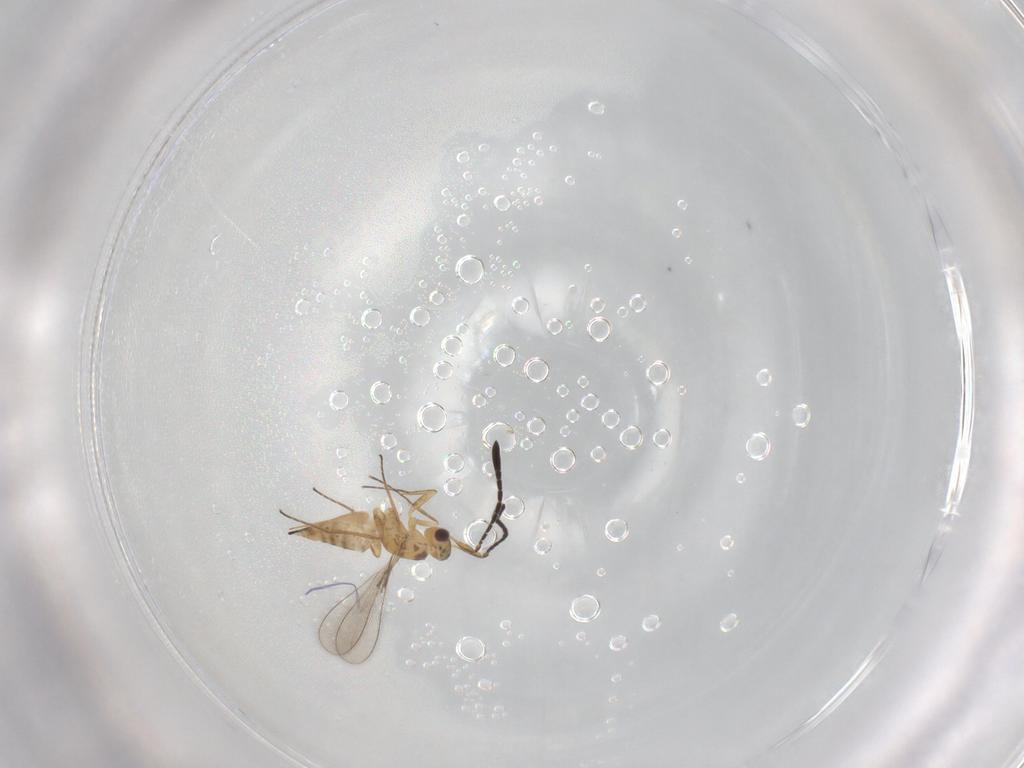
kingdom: Animalia
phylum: Arthropoda
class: Insecta
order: Hymenoptera
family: Mymaridae
